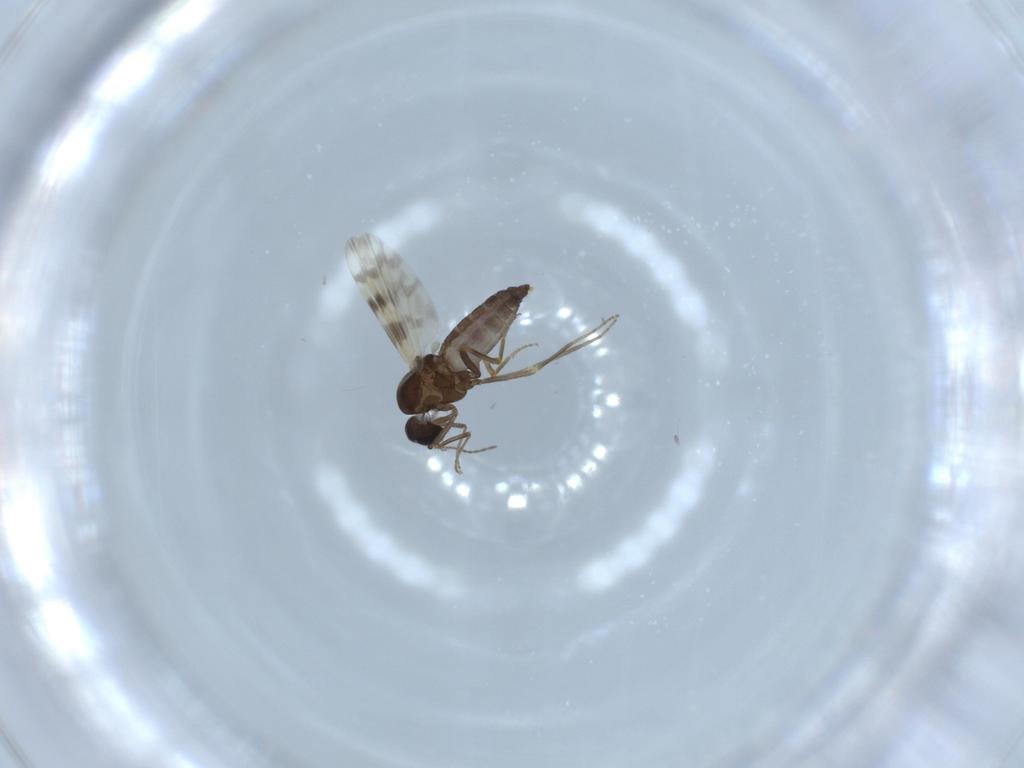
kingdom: Animalia
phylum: Arthropoda
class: Insecta
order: Diptera
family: Ceratopogonidae
